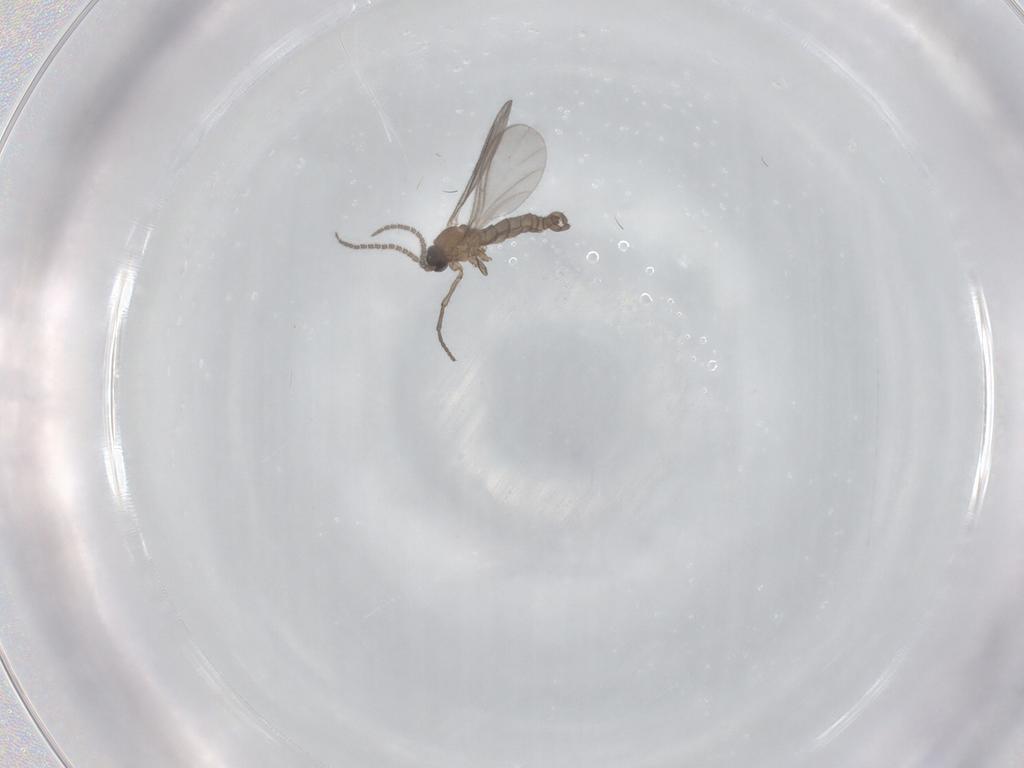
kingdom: Animalia
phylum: Arthropoda
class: Insecta
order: Diptera
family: Sciaridae
